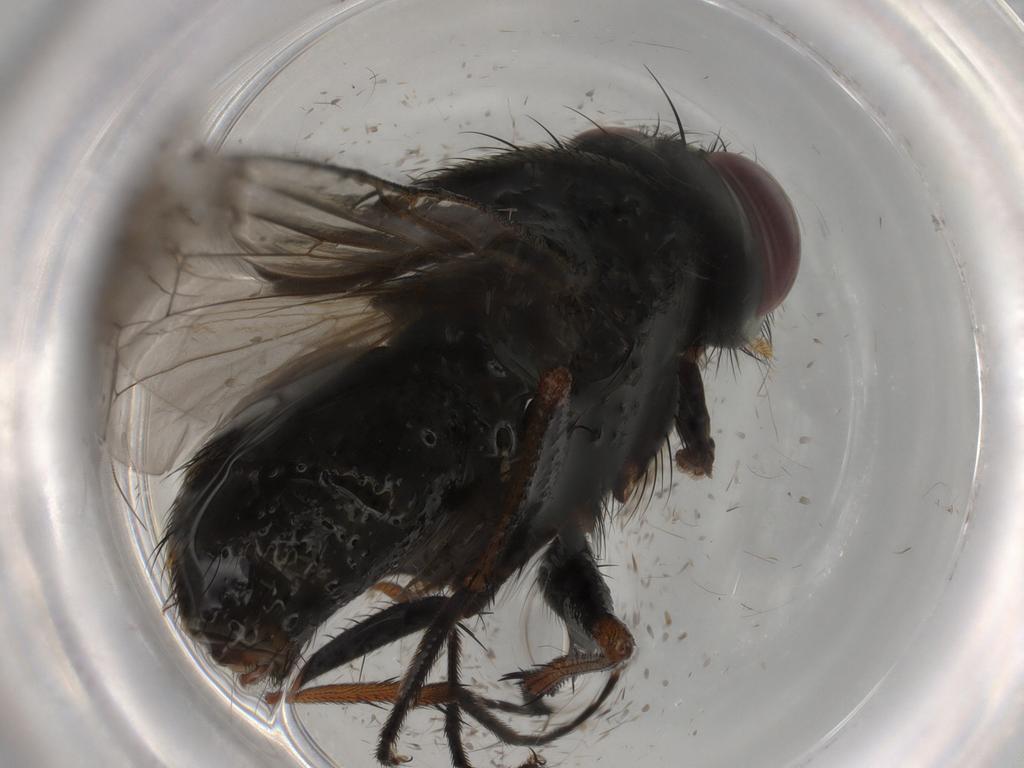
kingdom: Animalia
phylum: Arthropoda
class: Insecta
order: Diptera
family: Muscidae
